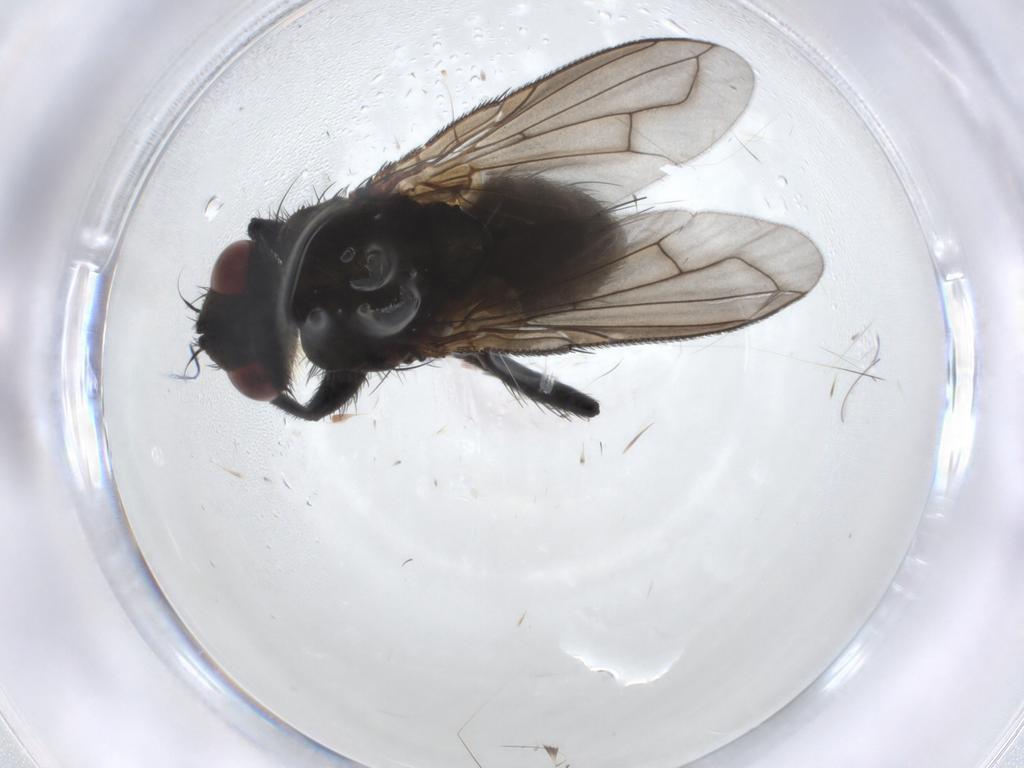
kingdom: Animalia
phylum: Arthropoda
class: Insecta
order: Diptera
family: Tachinidae
